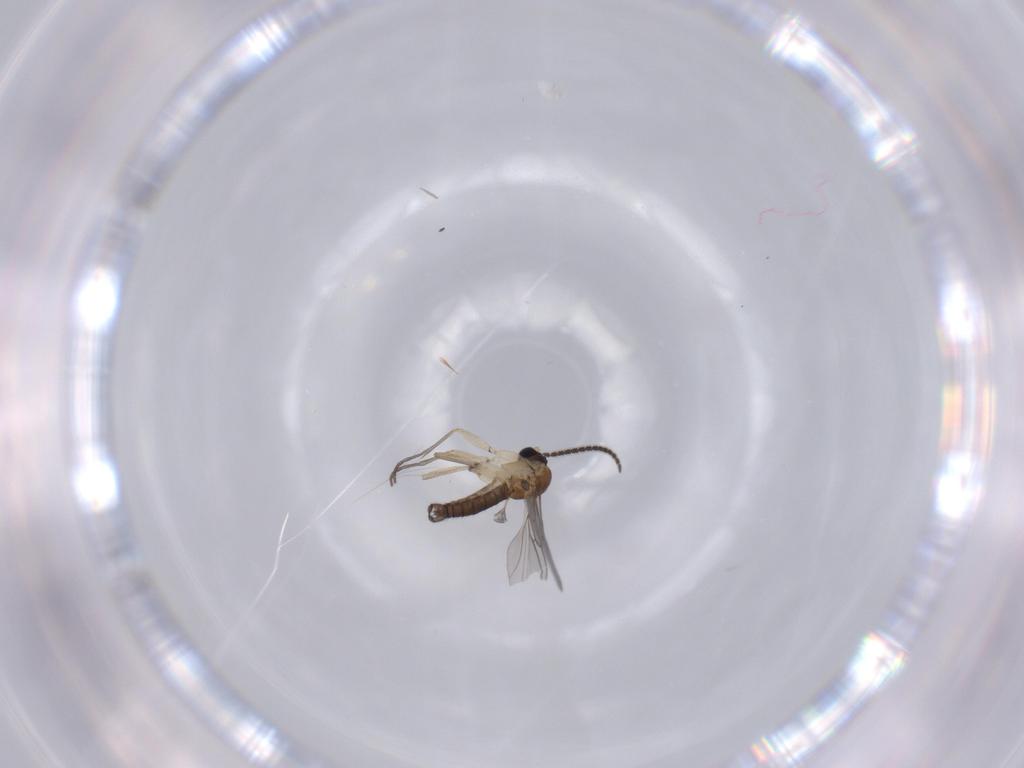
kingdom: Animalia
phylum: Arthropoda
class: Insecta
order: Diptera
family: Sciaridae
